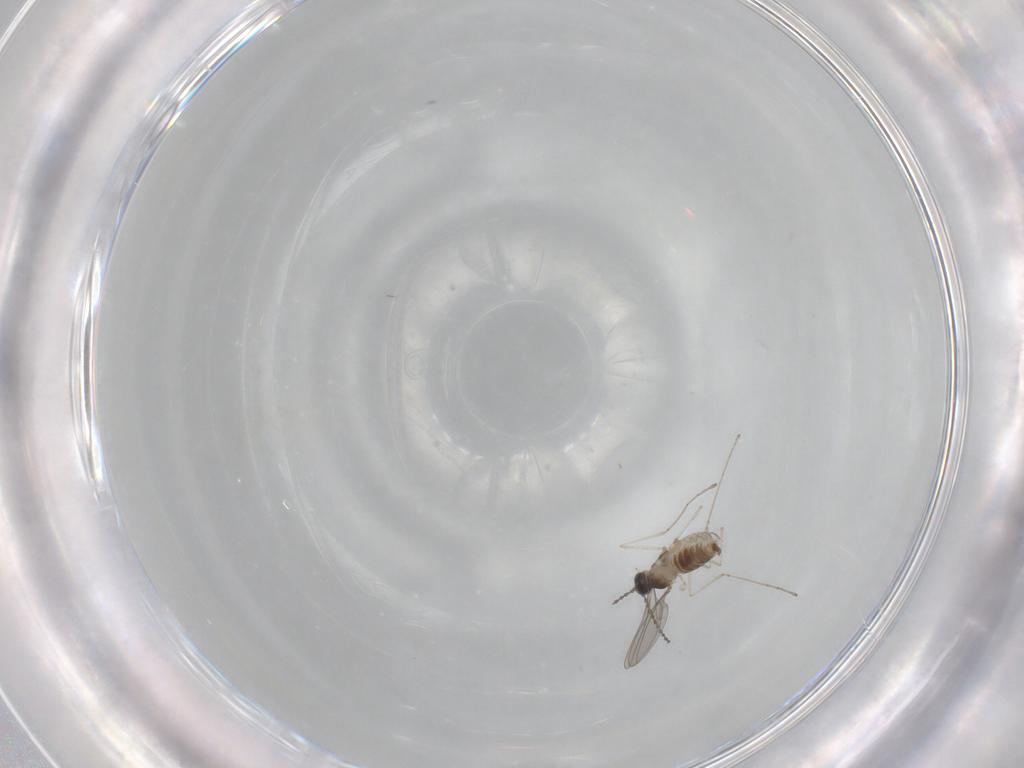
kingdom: Animalia
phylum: Arthropoda
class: Insecta
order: Diptera
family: Cecidomyiidae
